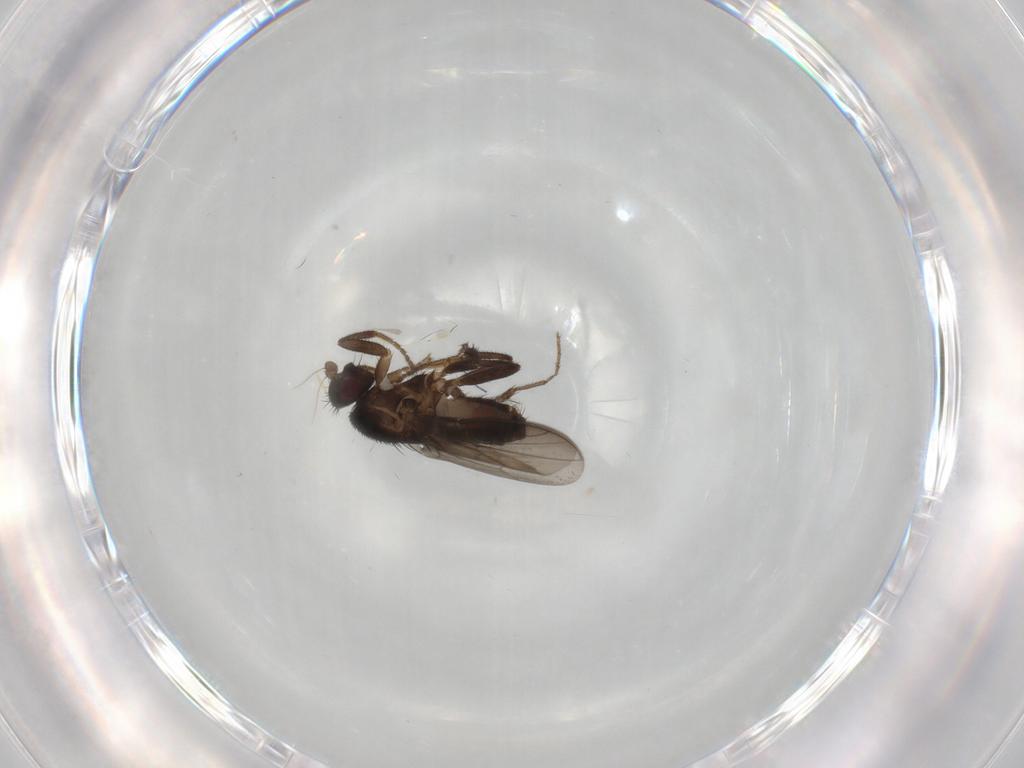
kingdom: Animalia
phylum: Arthropoda
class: Insecta
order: Diptera
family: Sphaeroceridae
